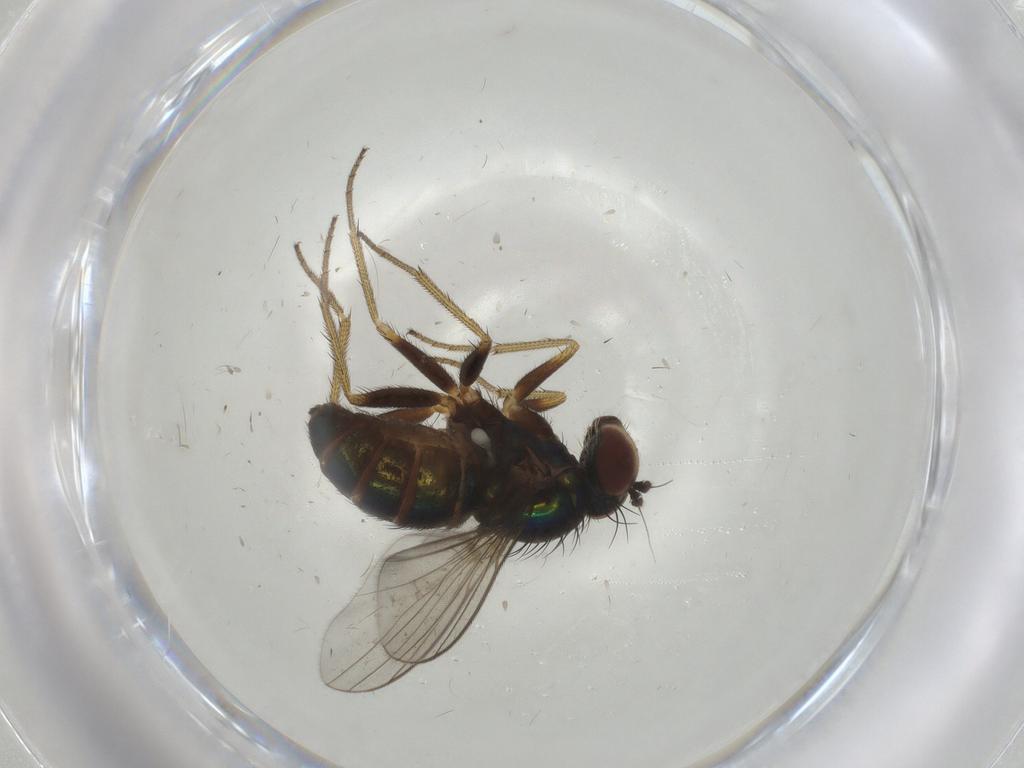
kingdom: Animalia
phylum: Arthropoda
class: Insecta
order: Diptera
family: Dolichopodidae
